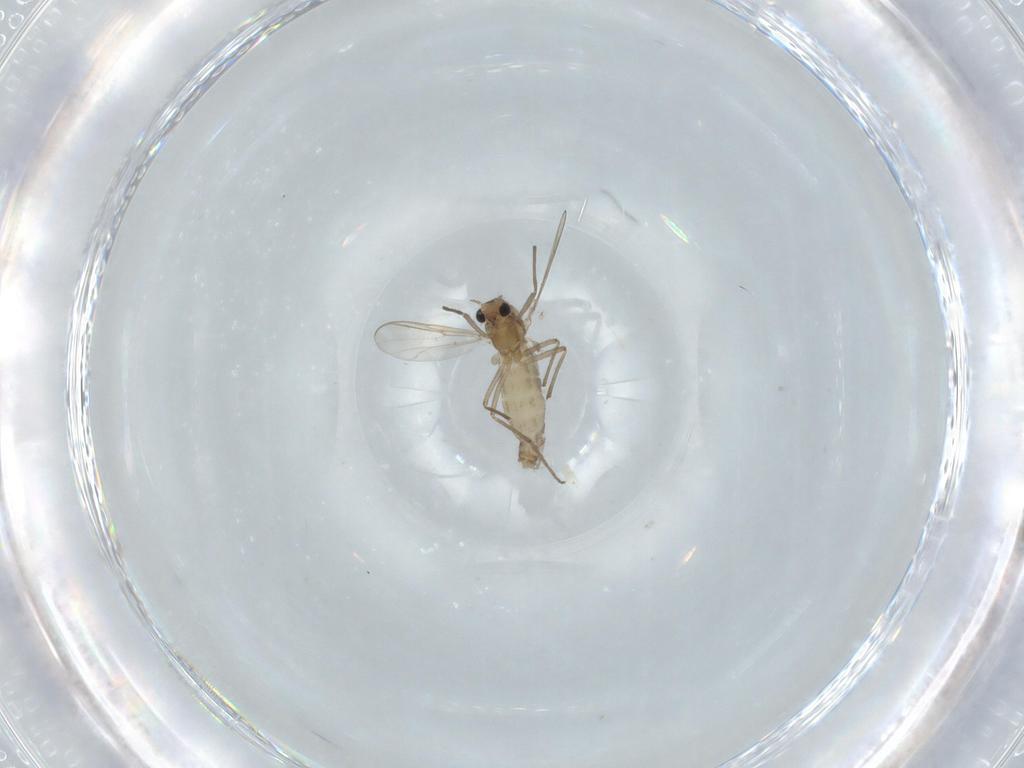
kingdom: Animalia
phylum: Arthropoda
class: Insecta
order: Diptera
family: Chironomidae
